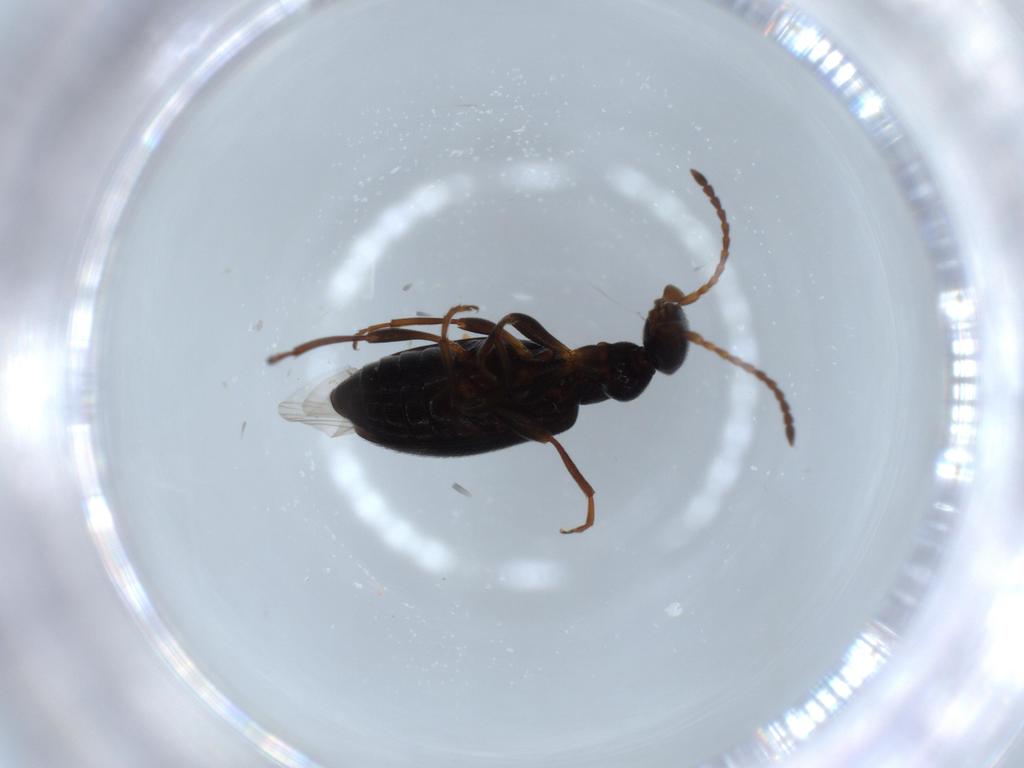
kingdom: Animalia
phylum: Arthropoda
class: Insecta
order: Coleoptera
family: Anthicidae
